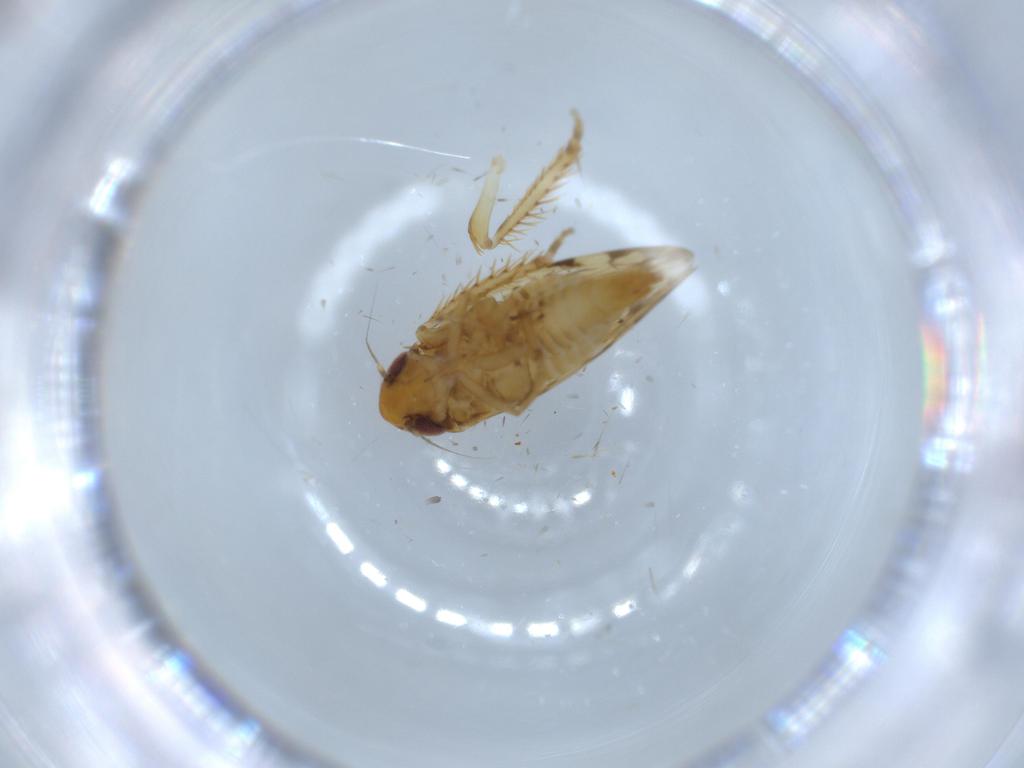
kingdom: Animalia
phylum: Arthropoda
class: Insecta
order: Hemiptera
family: Cicadellidae
